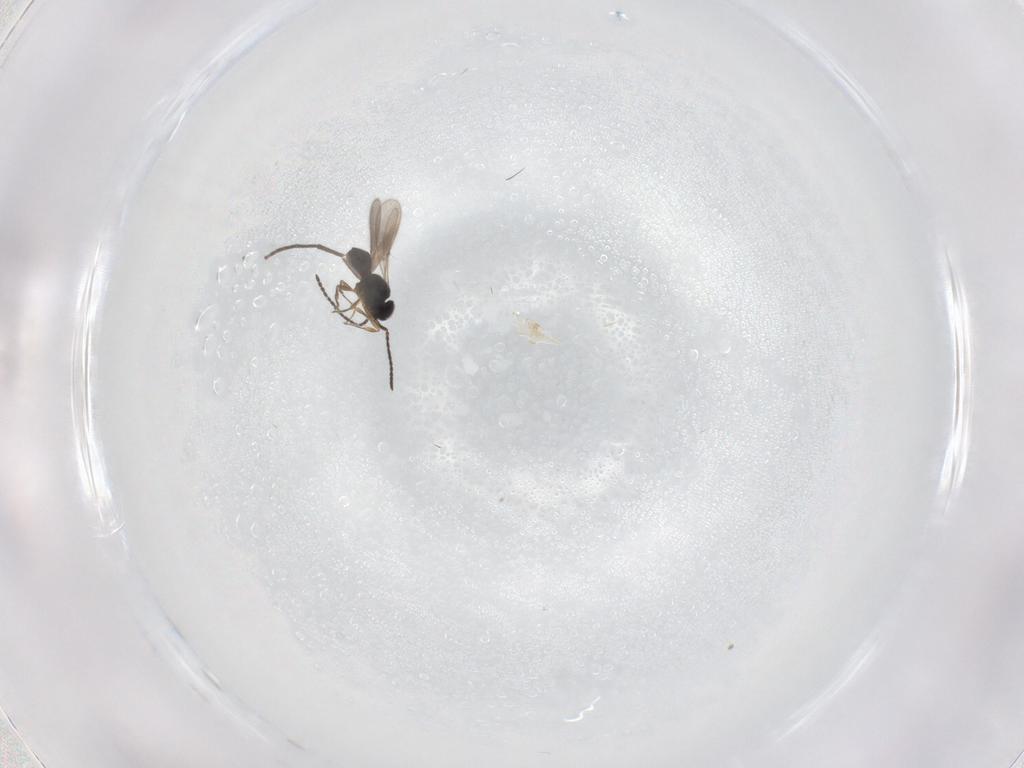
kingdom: Animalia
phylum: Arthropoda
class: Insecta
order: Hymenoptera
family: Scelionidae
